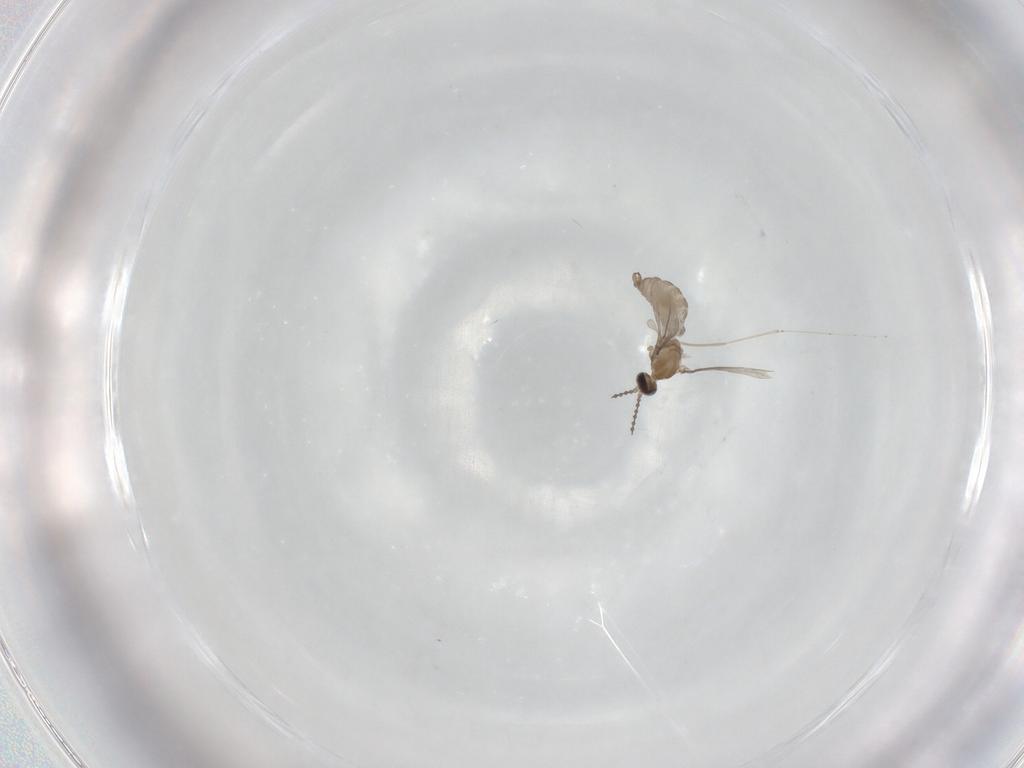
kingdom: Animalia
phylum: Arthropoda
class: Insecta
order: Diptera
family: Cecidomyiidae
